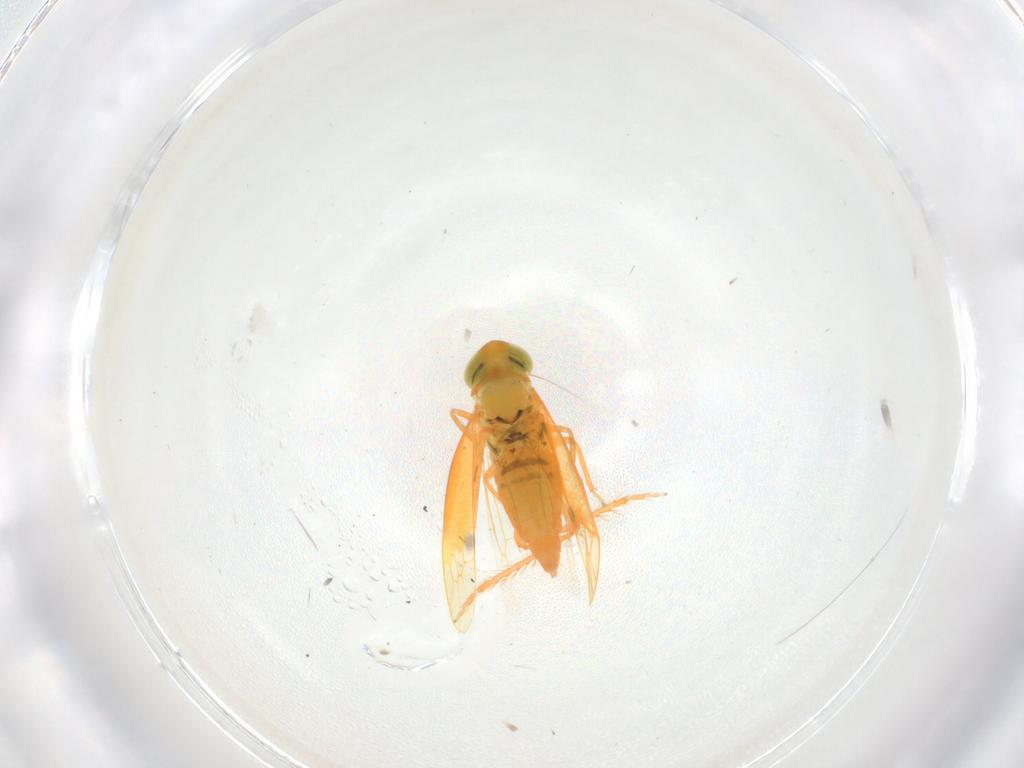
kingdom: Animalia
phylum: Arthropoda
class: Insecta
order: Hemiptera
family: Cicadellidae
